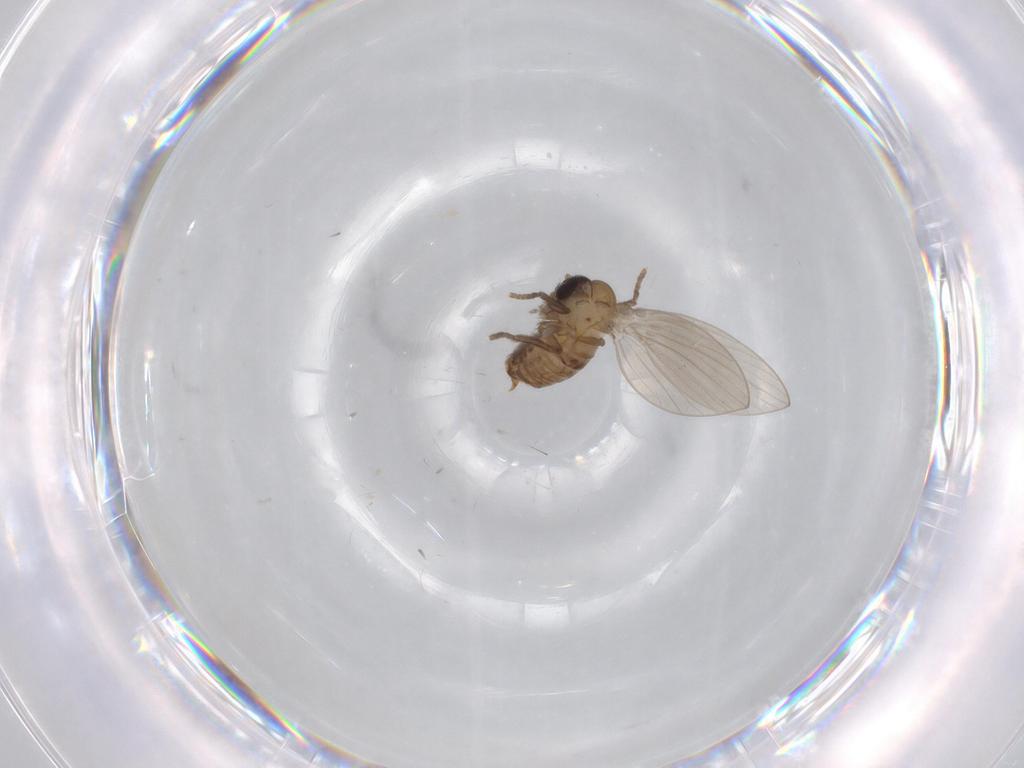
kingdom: Animalia
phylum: Arthropoda
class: Insecta
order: Diptera
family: Psychodidae
